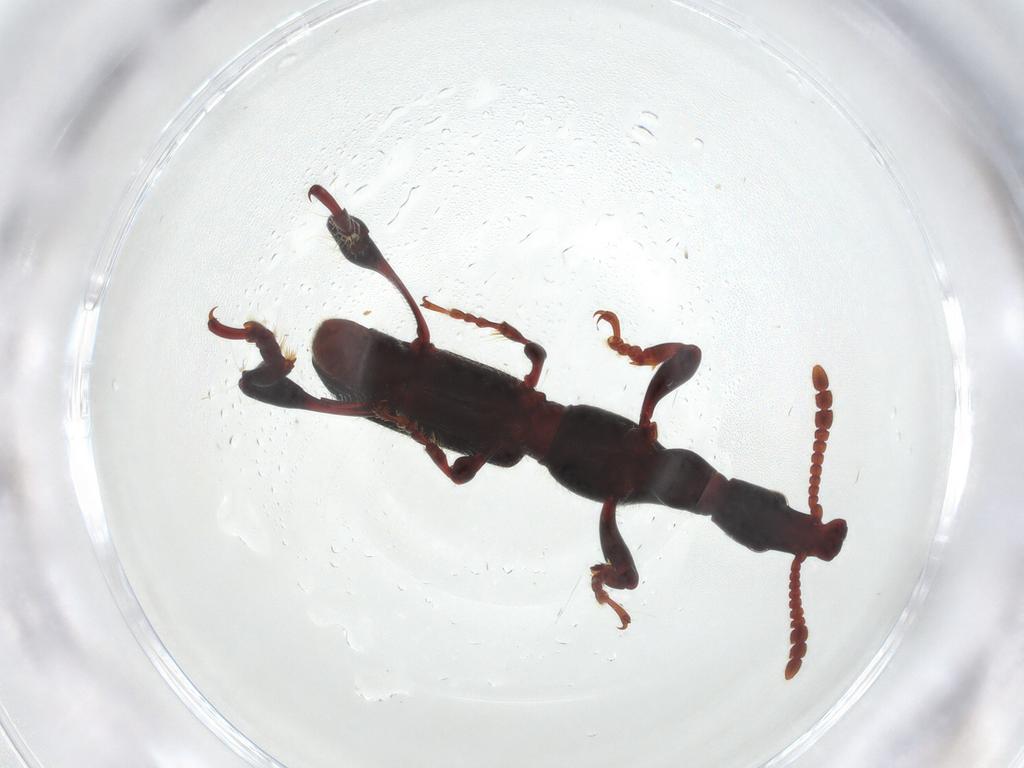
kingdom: Animalia
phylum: Arthropoda
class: Insecta
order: Coleoptera
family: Brentidae
